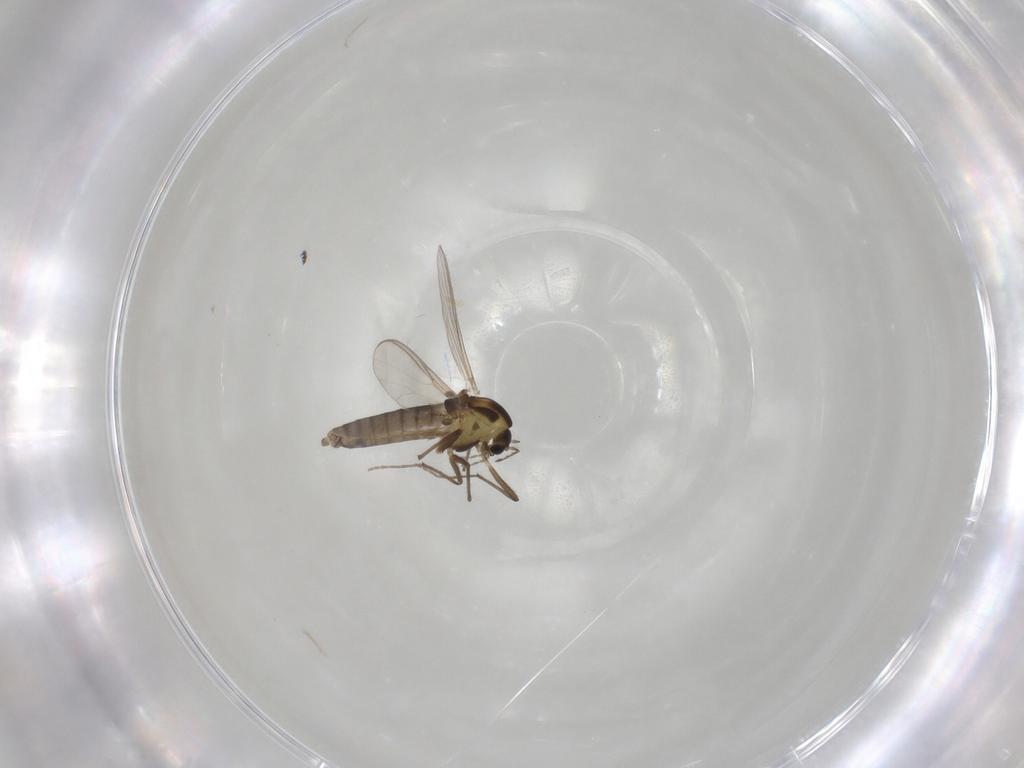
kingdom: Animalia
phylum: Arthropoda
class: Insecta
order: Diptera
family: Chironomidae
